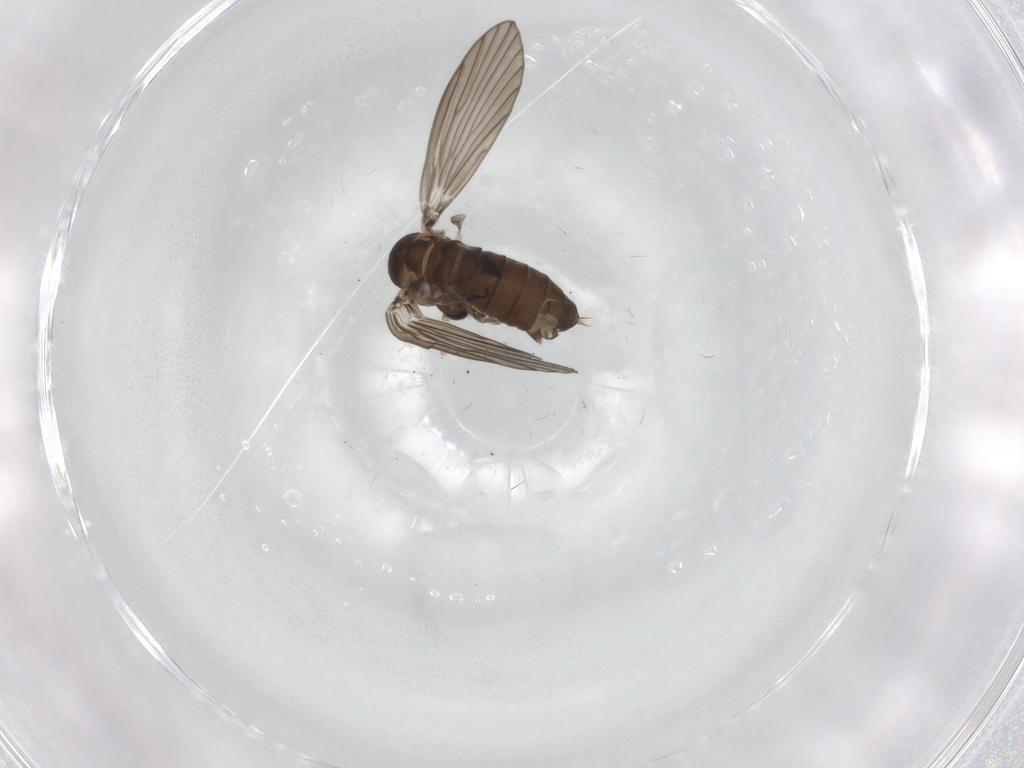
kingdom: Animalia
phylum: Arthropoda
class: Insecta
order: Diptera
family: Psychodidae
